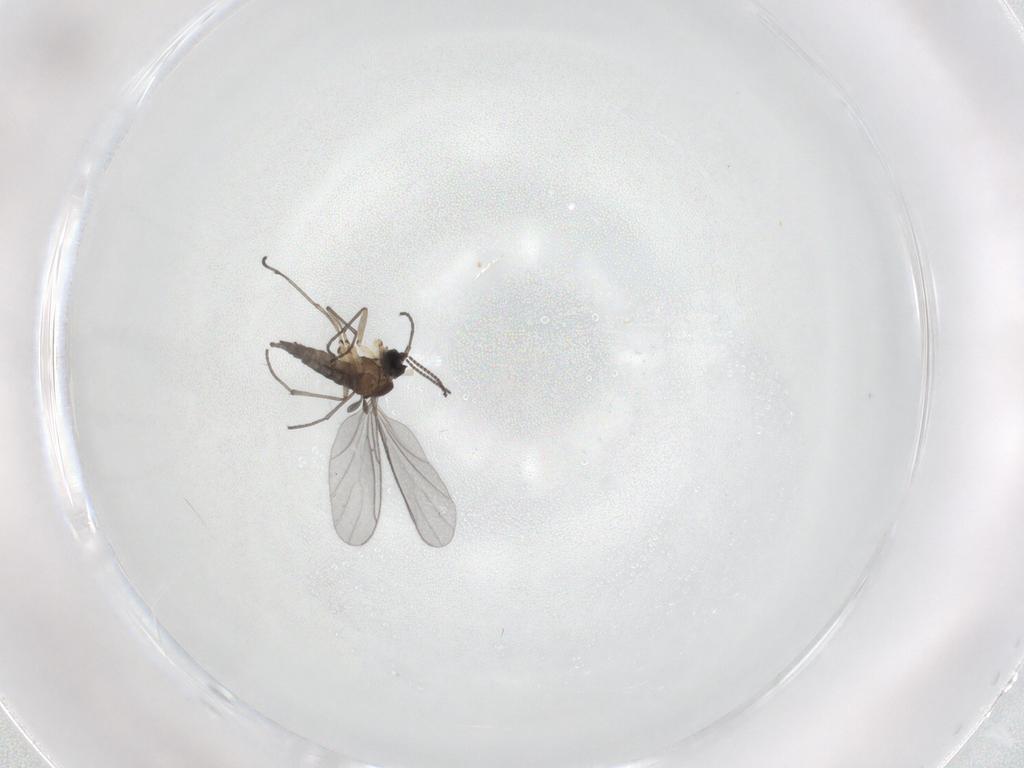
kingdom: Animalia
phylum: Arthropoda
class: Insecta
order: Diptera
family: Sciaridae
